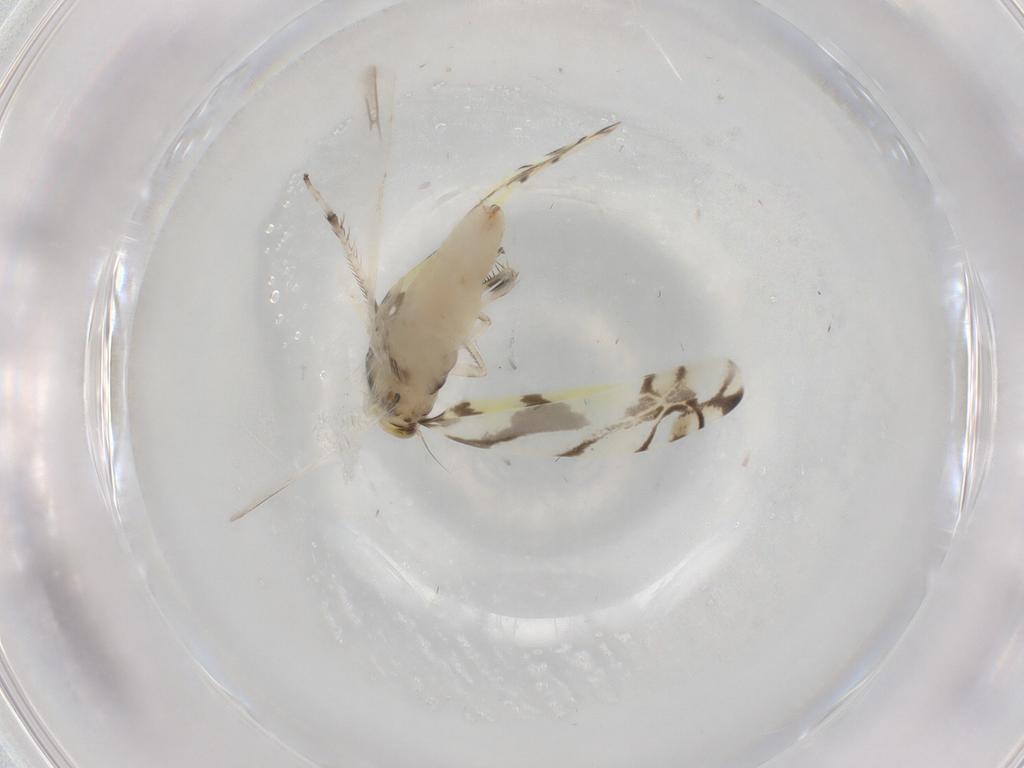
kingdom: Animalia
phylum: Arthropoda
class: Insecta
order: Hemiptera
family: Cicadellidae
